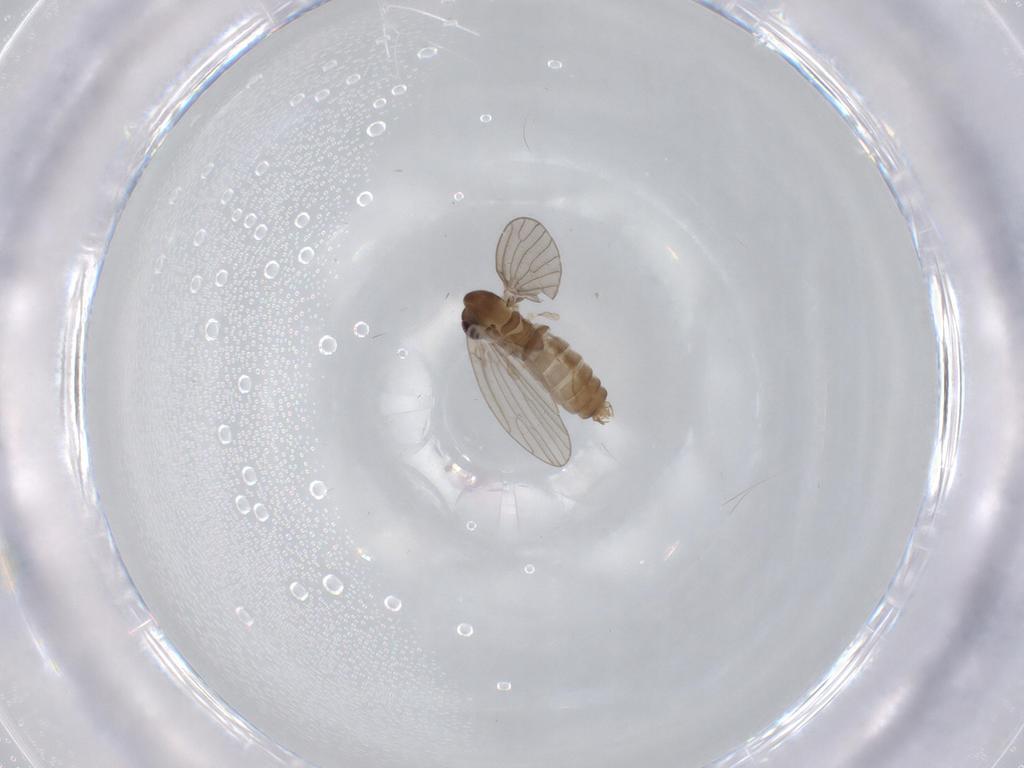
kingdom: Animalia
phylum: Arthropoda
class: Insecta
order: Diptera
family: Psychodidae
